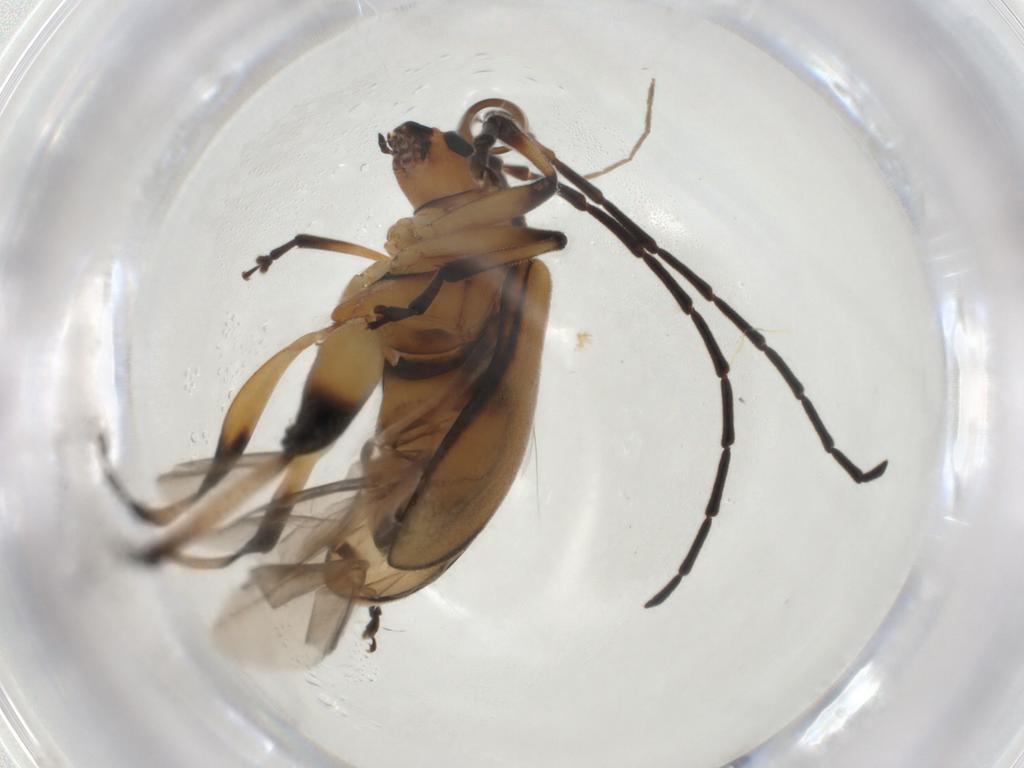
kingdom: Animalia
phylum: Arthropoda
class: Insecta
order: Coleoptera
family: Chrysomelidae
